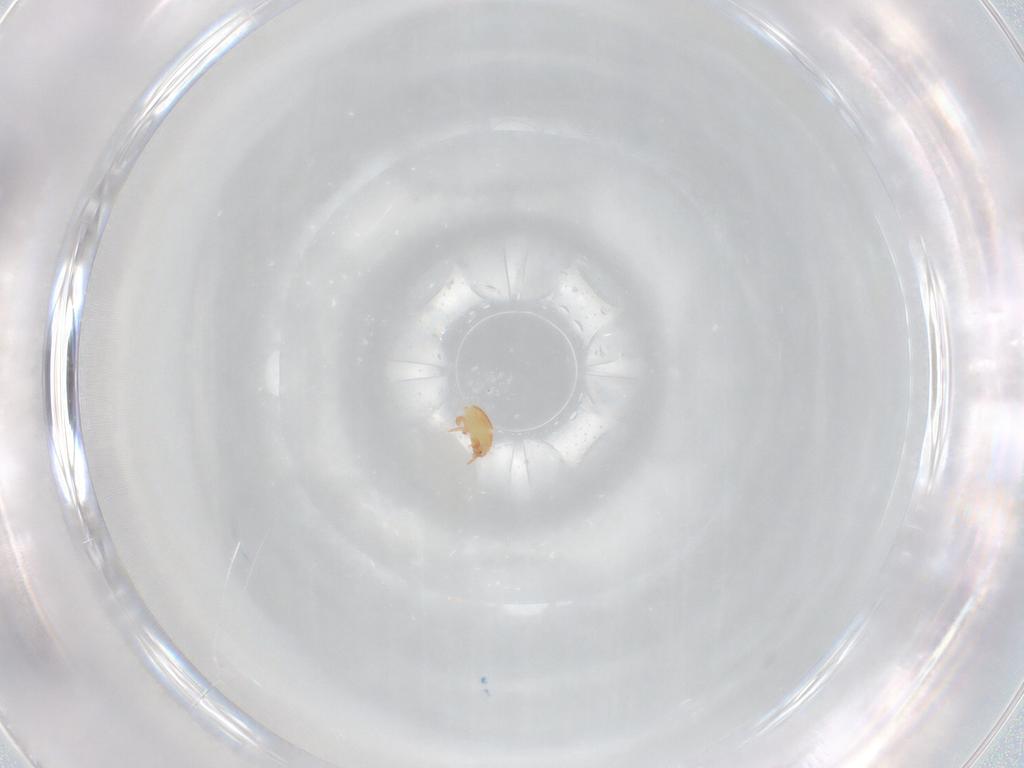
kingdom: Animalia
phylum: Arthropoda
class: Arachnida
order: Trombidiformes
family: Stigmaeidae
